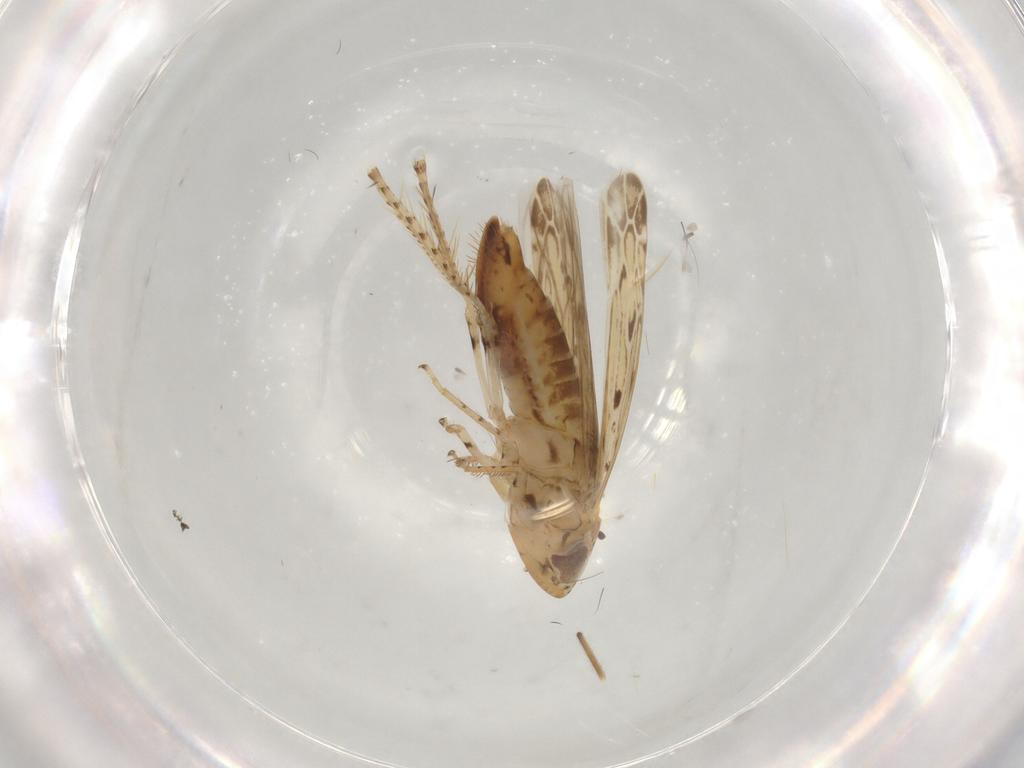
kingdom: Animalia
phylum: Arthropoda
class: Insecta
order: Hemiptera
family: Cicadellidae
